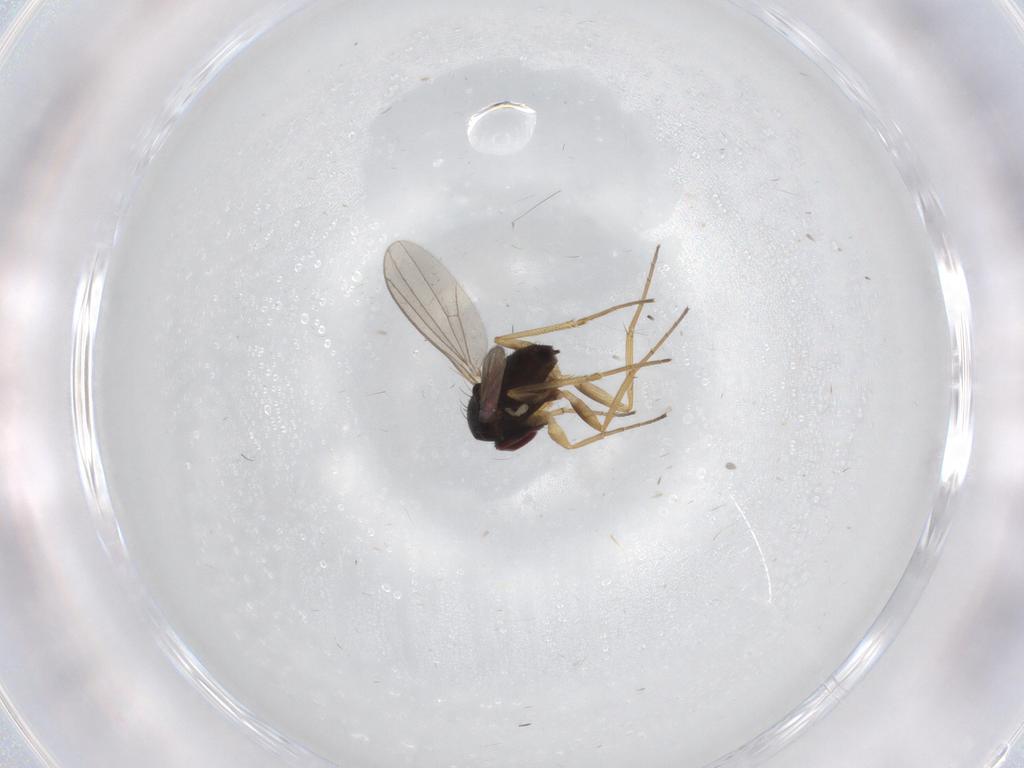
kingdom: Animalia
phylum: Arthropoda
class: Insecta
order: Diptera
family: Dolichopodidae
